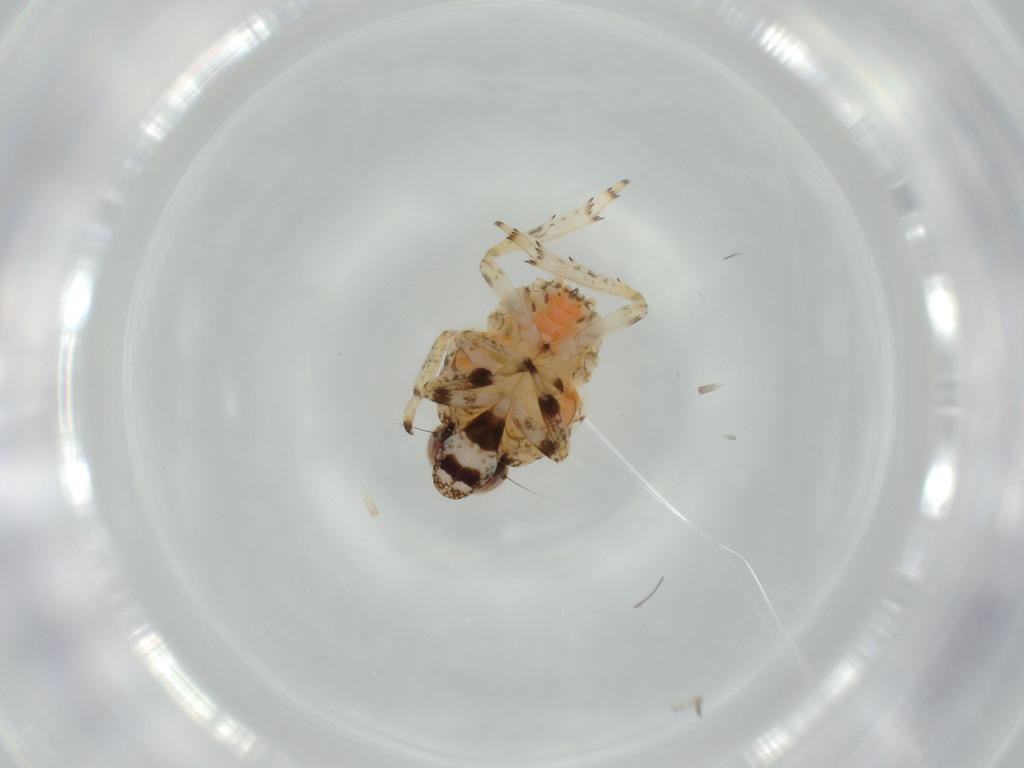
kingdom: Animalia
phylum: Arthropoda
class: Insecta
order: Hemiptera
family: Issidae
